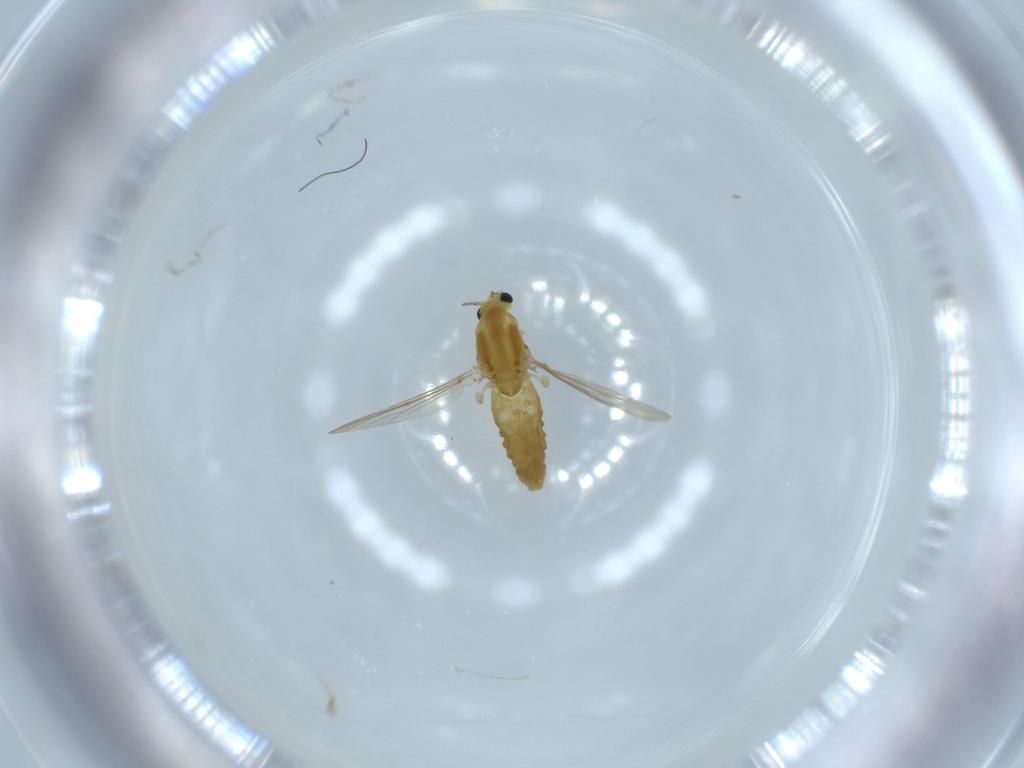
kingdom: Animalia
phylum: Arthropoda
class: Insecta
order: Diptera
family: Chironomidae
